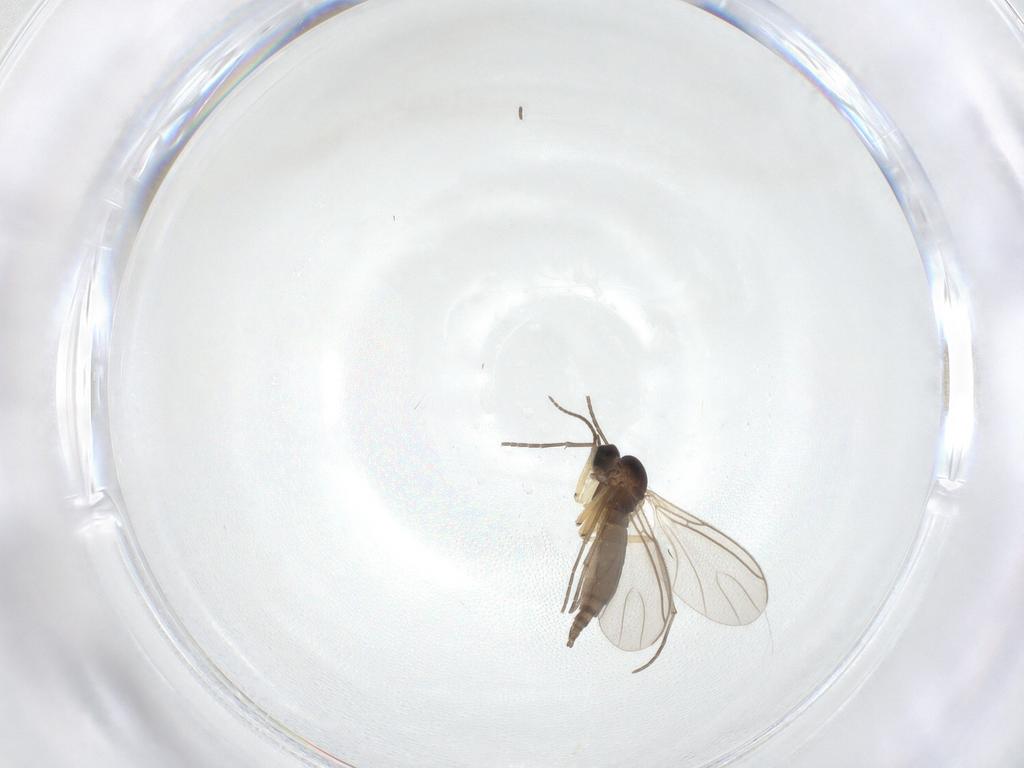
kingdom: Animalia
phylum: Arthropoda
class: Insecta
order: Diptera
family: Sciaridae
